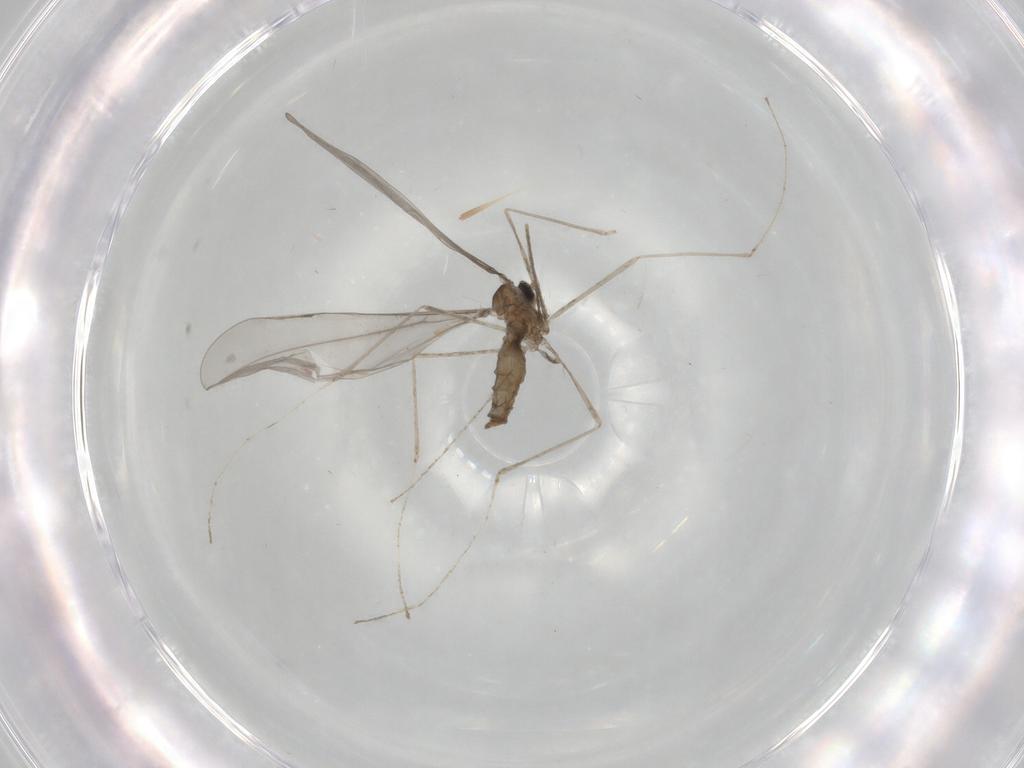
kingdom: Animalia
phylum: Arthropoda
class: Insecta
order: Diptera
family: Cecidomyiidae
